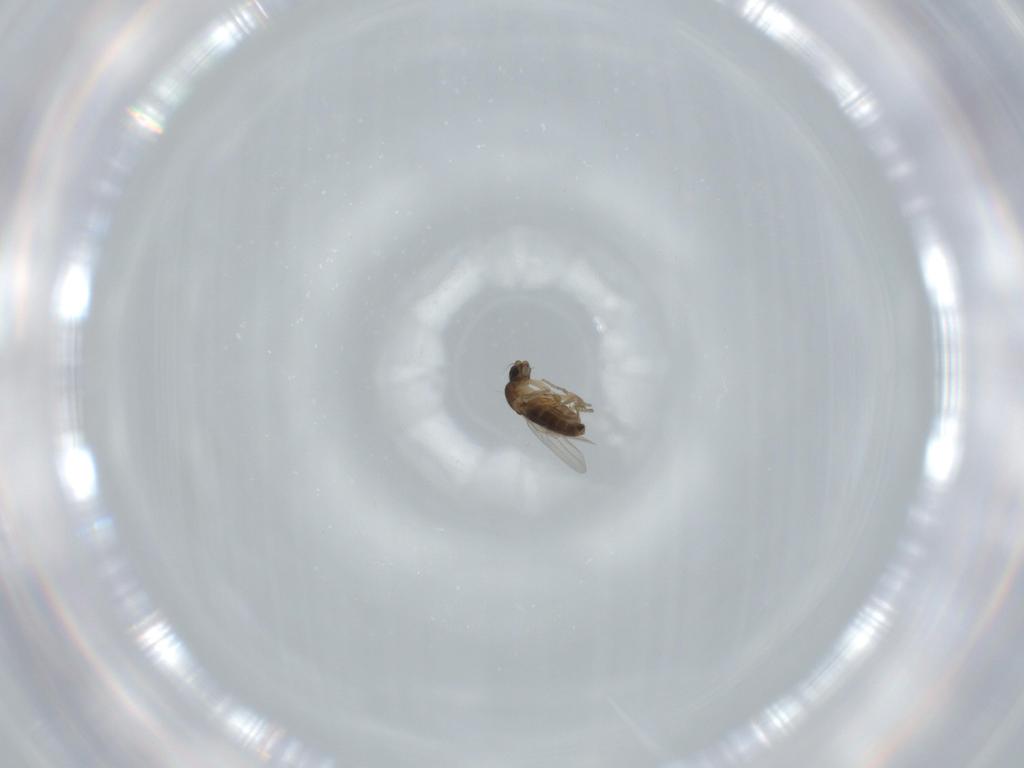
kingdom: Animalia
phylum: Arthropoda
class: Insecta
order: Diptera
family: Phoridae
